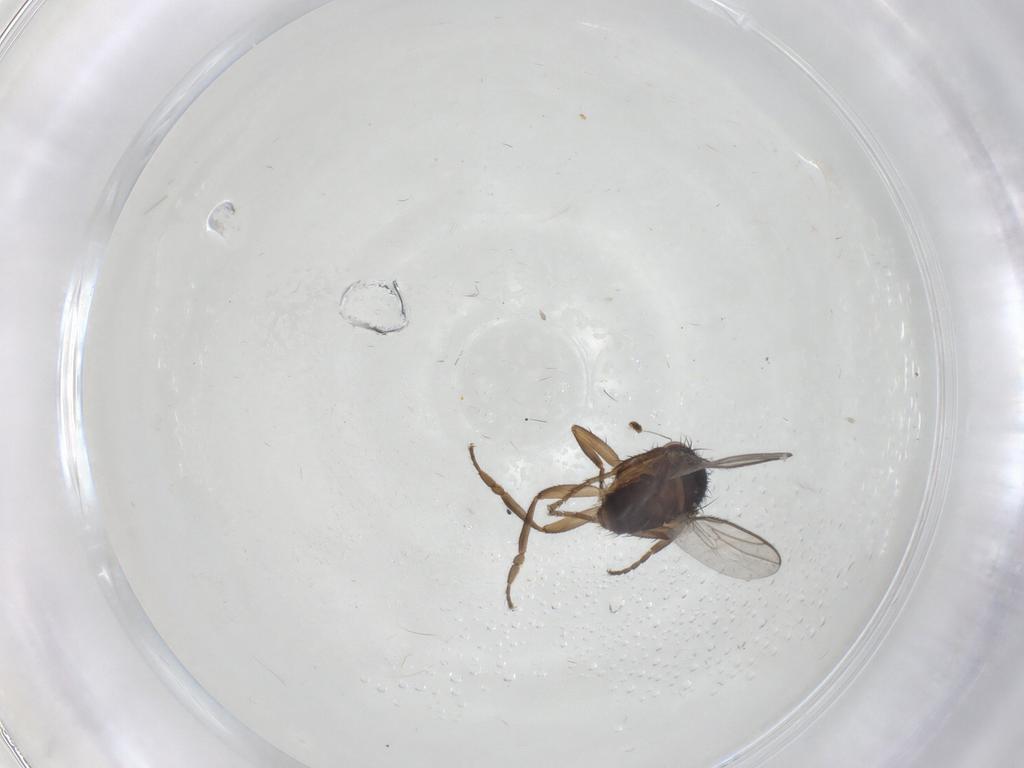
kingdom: Animalia
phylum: Arthropoda
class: Insecta
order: Diptera
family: Cecidomyiidae
